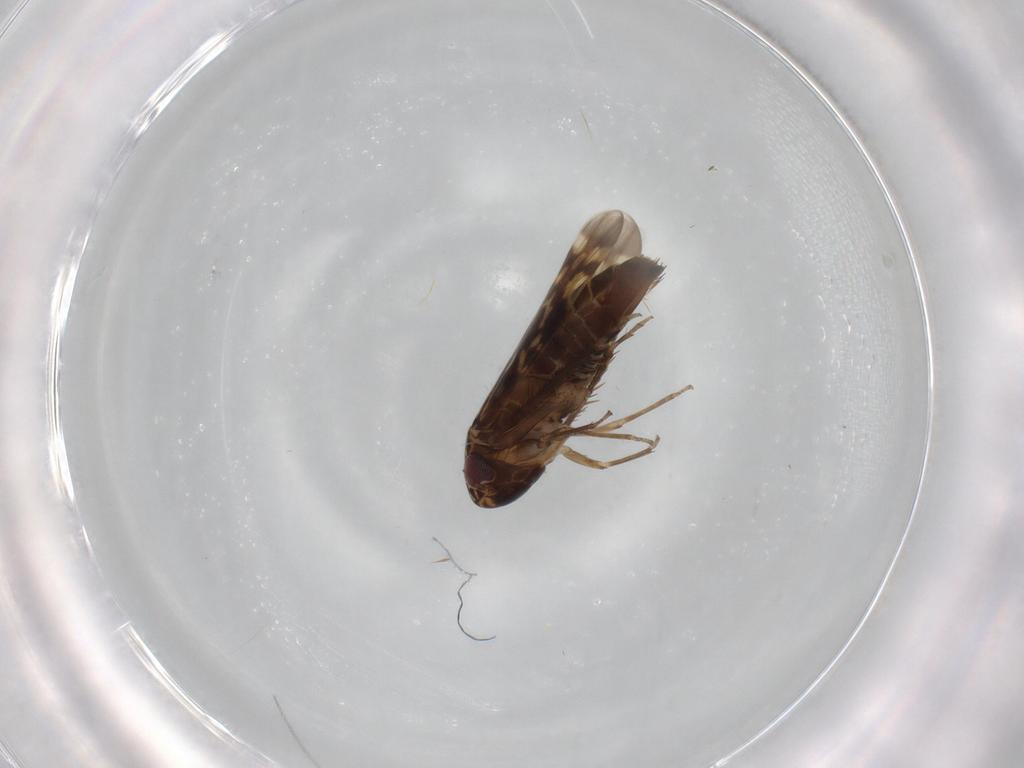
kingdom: Animalia
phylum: Arthropoda
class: Insecta
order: Hemiptera
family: Cicadellidae
